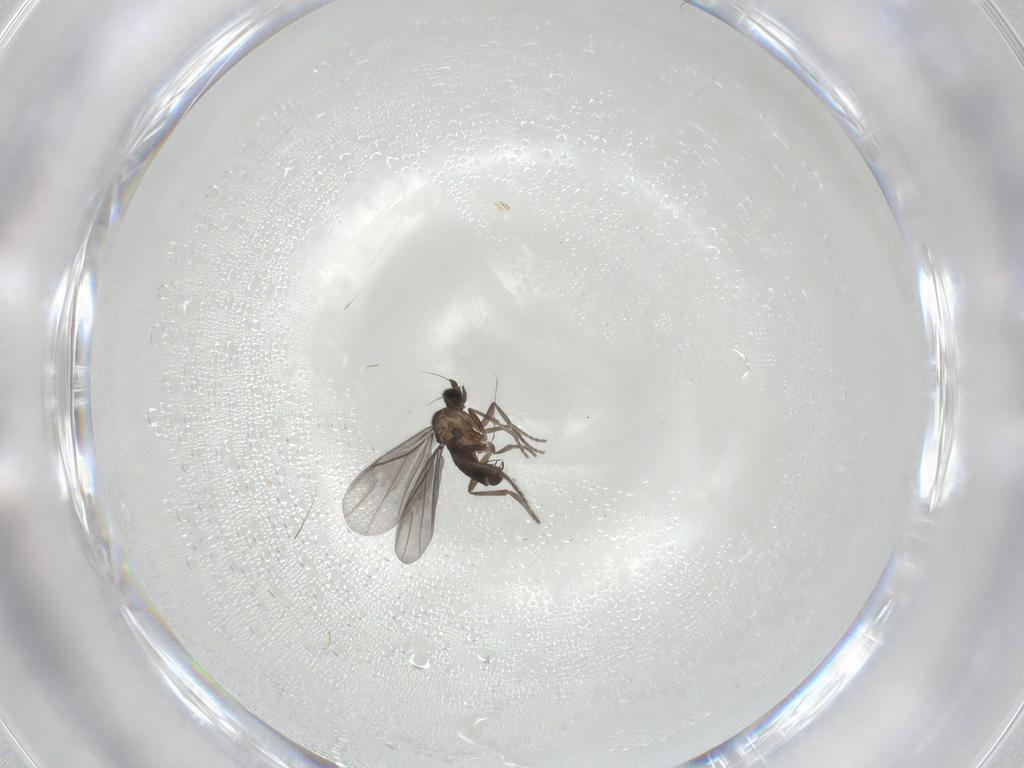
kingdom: Animalia
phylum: Arthropoda
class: Insecta
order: Diptera
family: Phoridae
